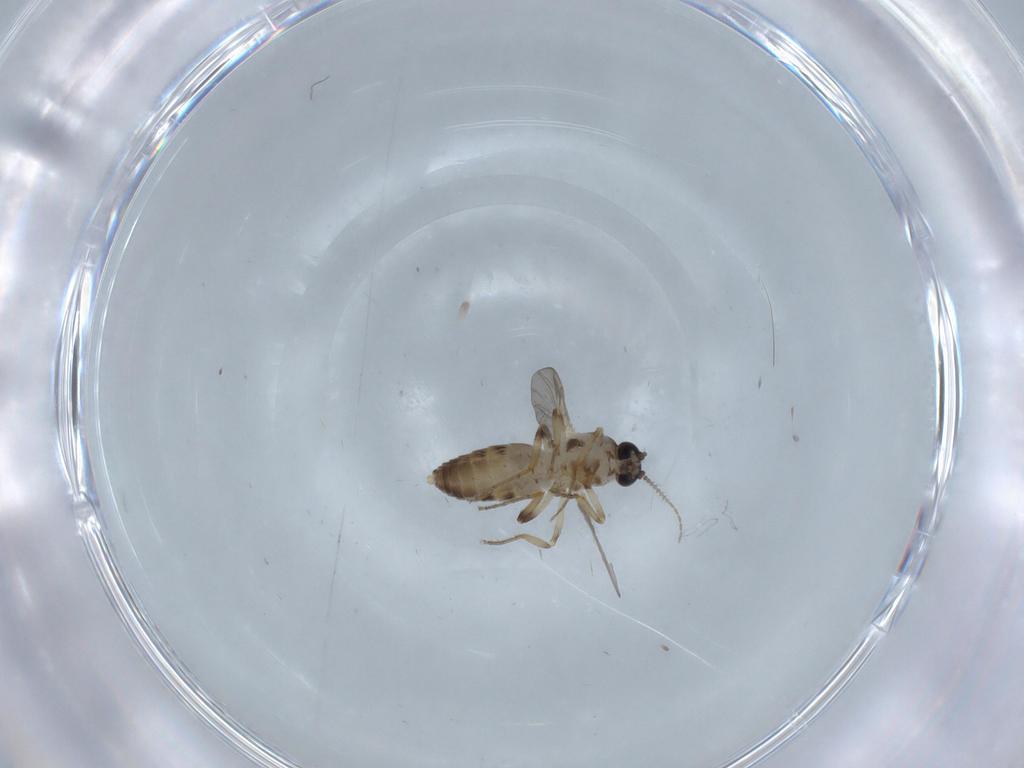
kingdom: Animalia
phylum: Arthropoda
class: Insecta
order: Diptera
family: Ceratopogonidae
